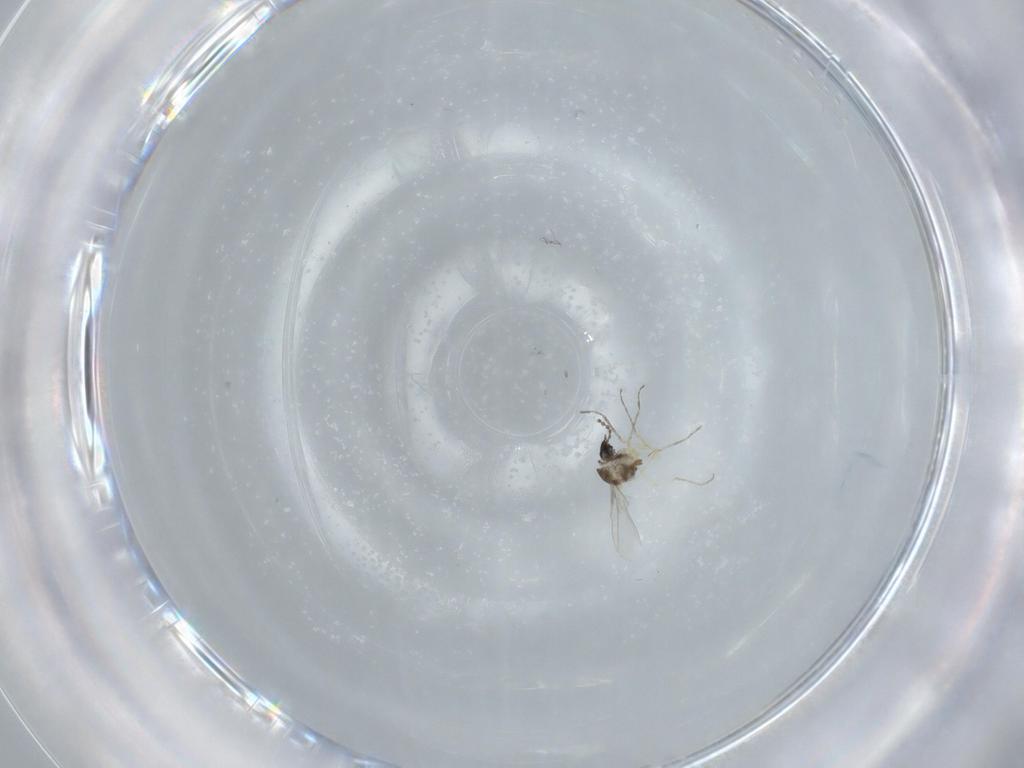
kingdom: Animalia
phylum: Arthropoda
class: Insecta
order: Diptera
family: Cecidomyiidae
